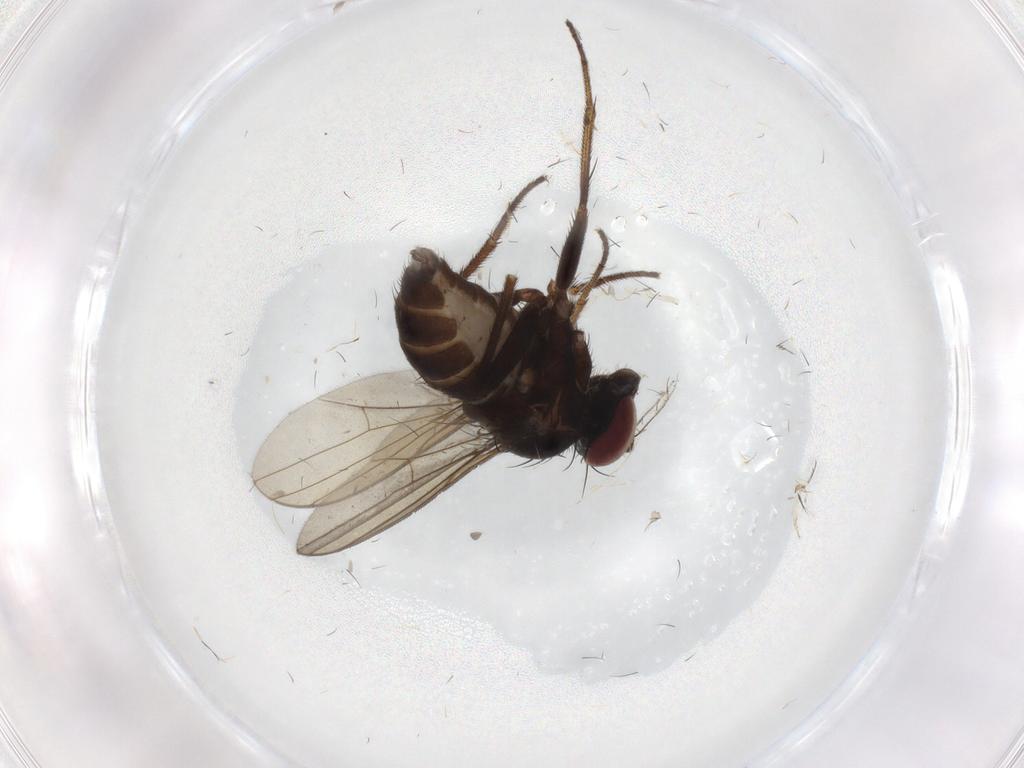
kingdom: Animalia
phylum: Arthropoda
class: Insecta
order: Diptera
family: Dolichopodidae
